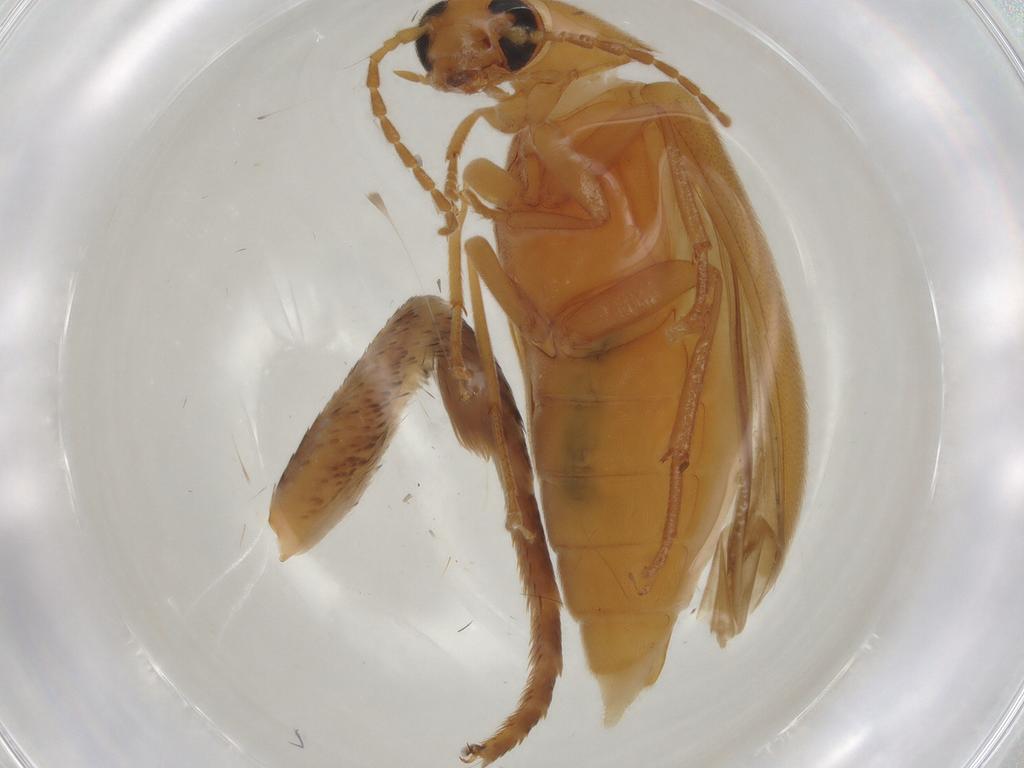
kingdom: Animalia
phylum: Arthropoda
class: Insecta
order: Coleoptera
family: Scraptiidae
